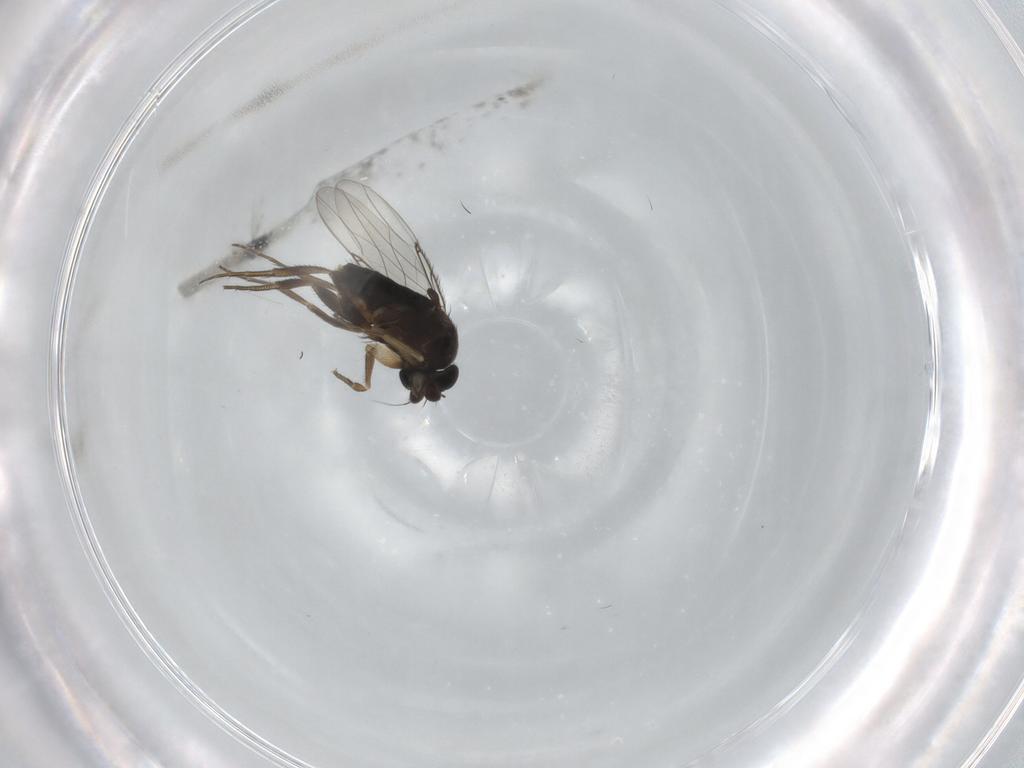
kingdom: Animalia
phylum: Arthropoda
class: Insecta
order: Diptera
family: Phoridae
